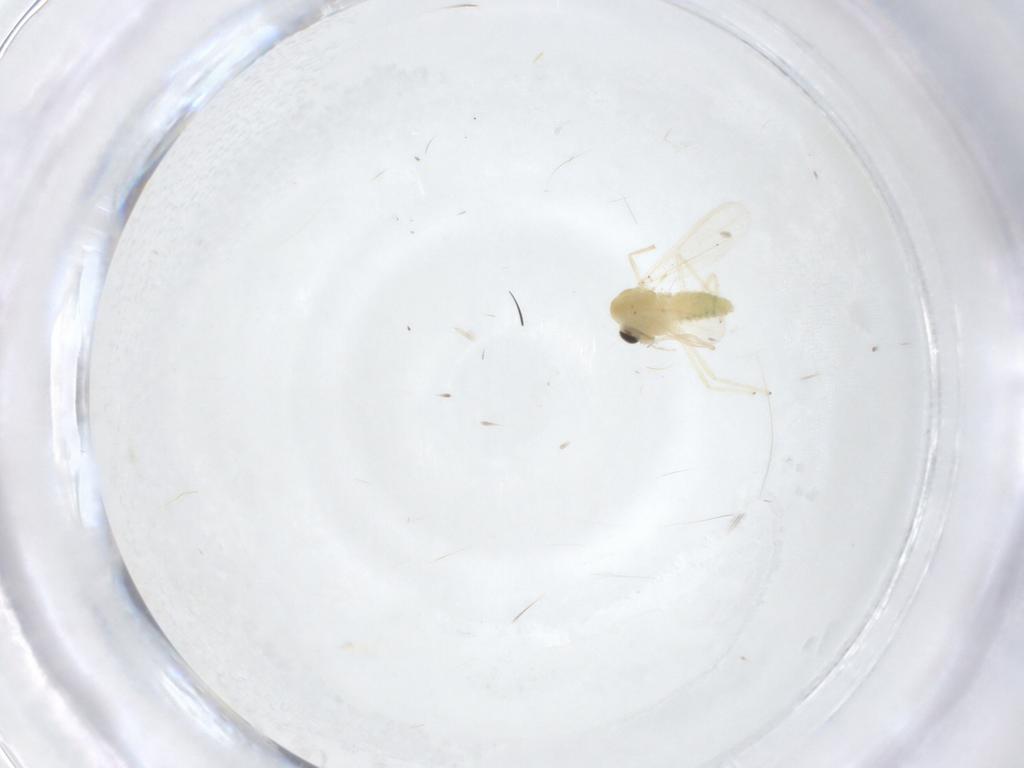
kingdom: Animalia
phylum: Arthropoda
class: Insecta
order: Diptera
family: Chironomidae
